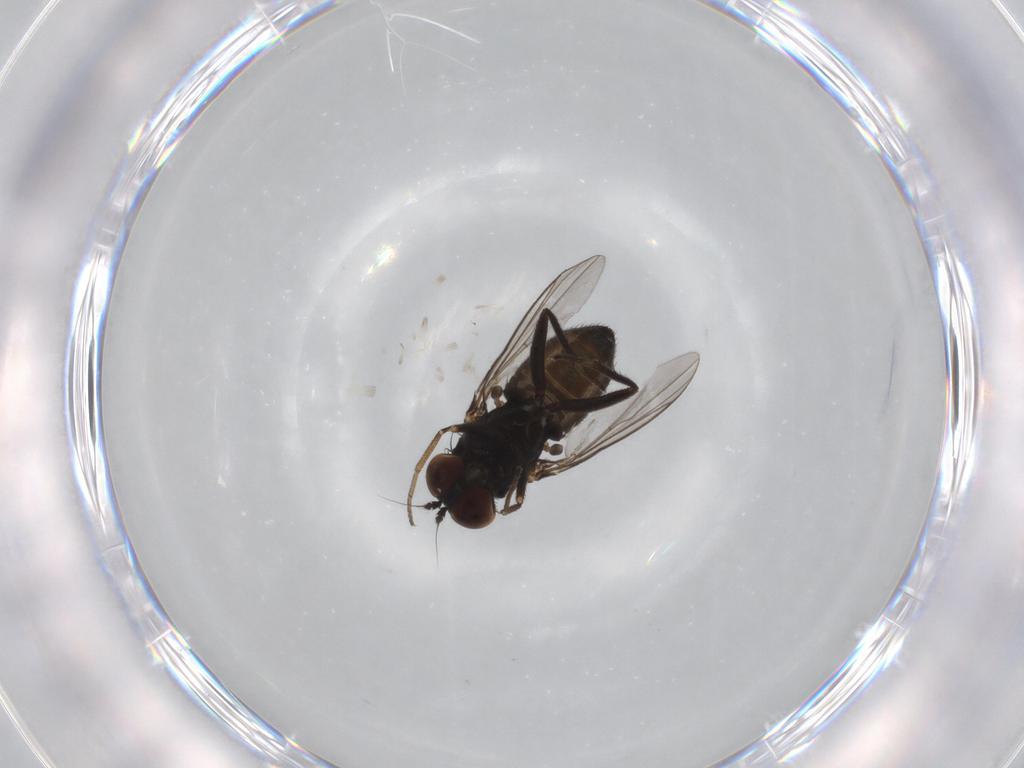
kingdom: Animalia
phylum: Arthropoda
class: Insecta
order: Diptera
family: Dolichopodidae
